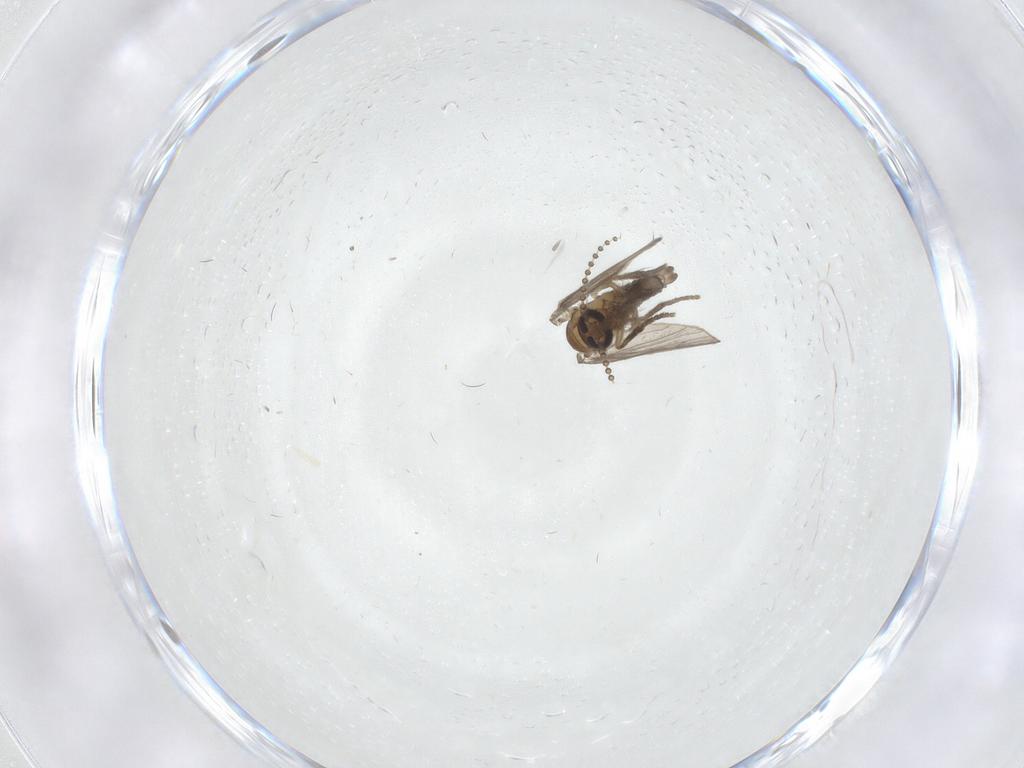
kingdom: Animalia
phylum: Arthropoda
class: Insecta
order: Diptera
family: Psychodidae
